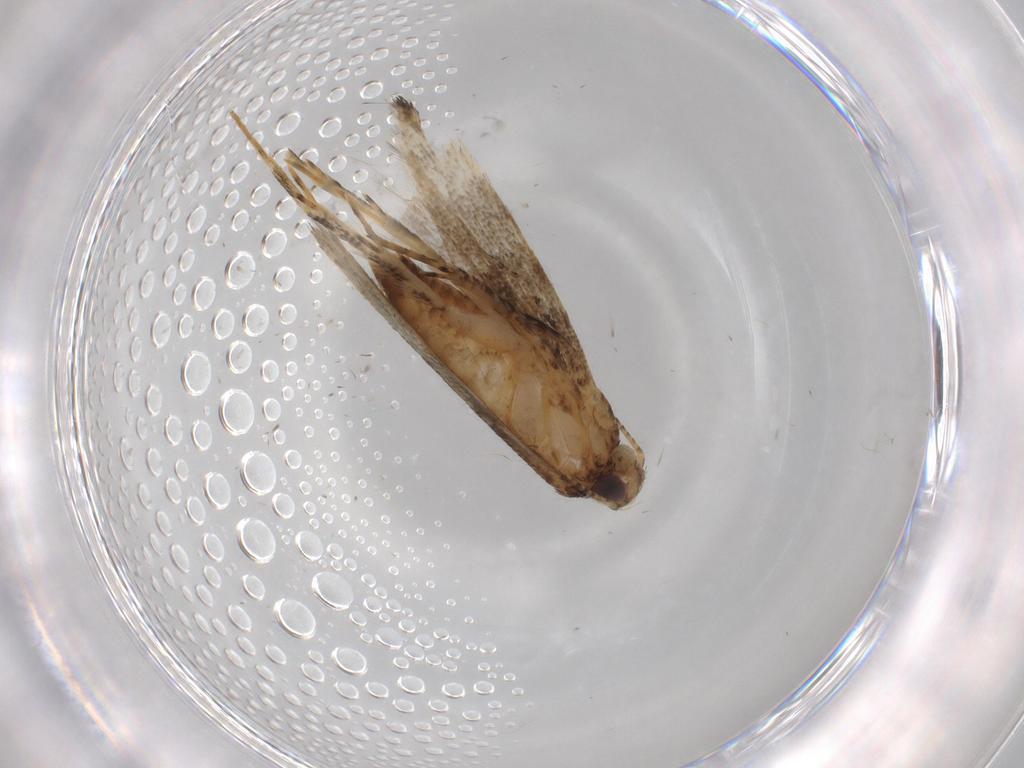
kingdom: Animalia
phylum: Arthropoda
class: Insecta
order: Lepidoptera
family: Gelechiidae
